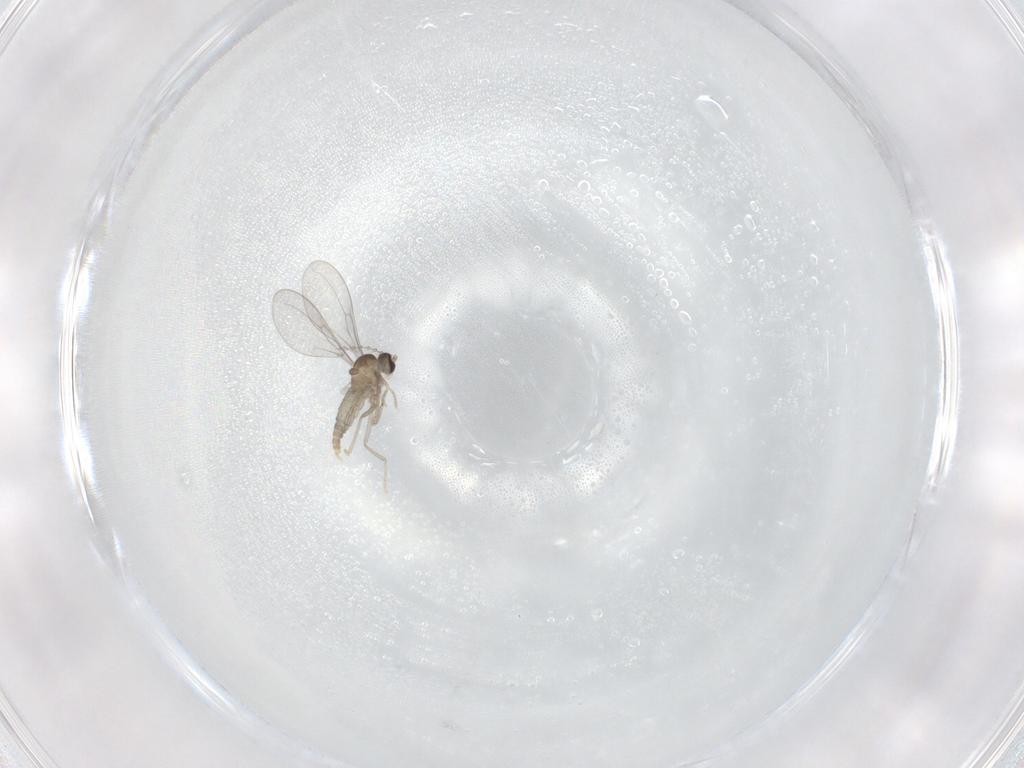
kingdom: Animalia
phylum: Arthropoda
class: Insecta
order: Diptera
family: Cecidomyiidae
